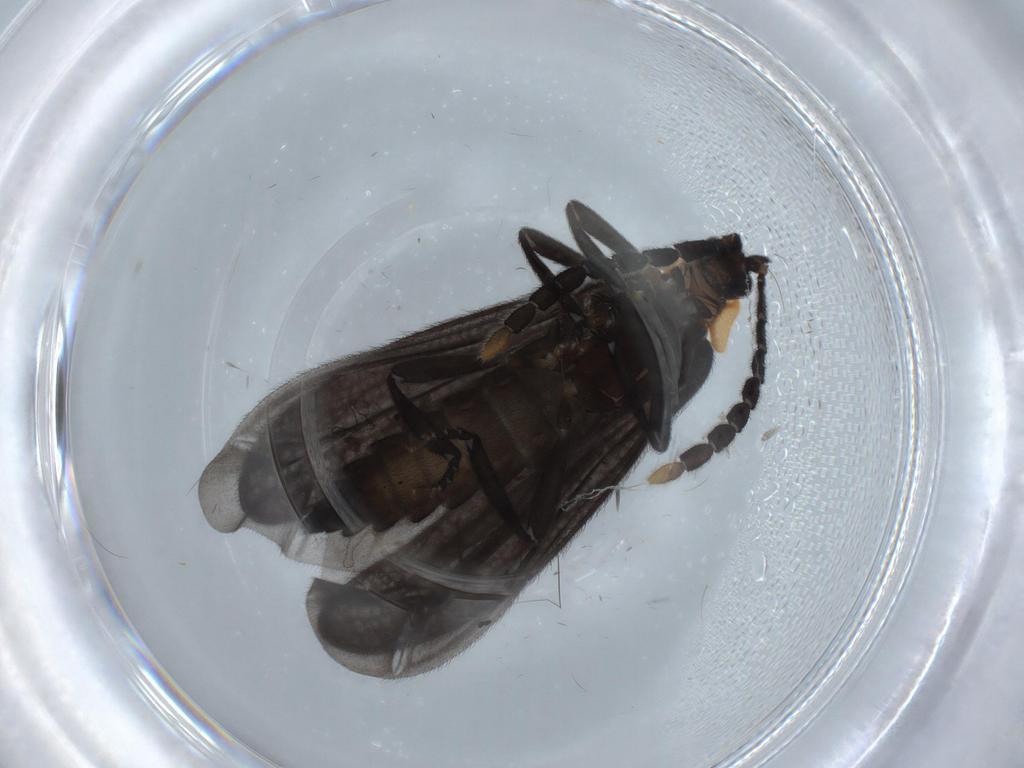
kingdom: Animalia
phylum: Arthropoda
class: Insecta
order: Coleoptera
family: Lycidae
